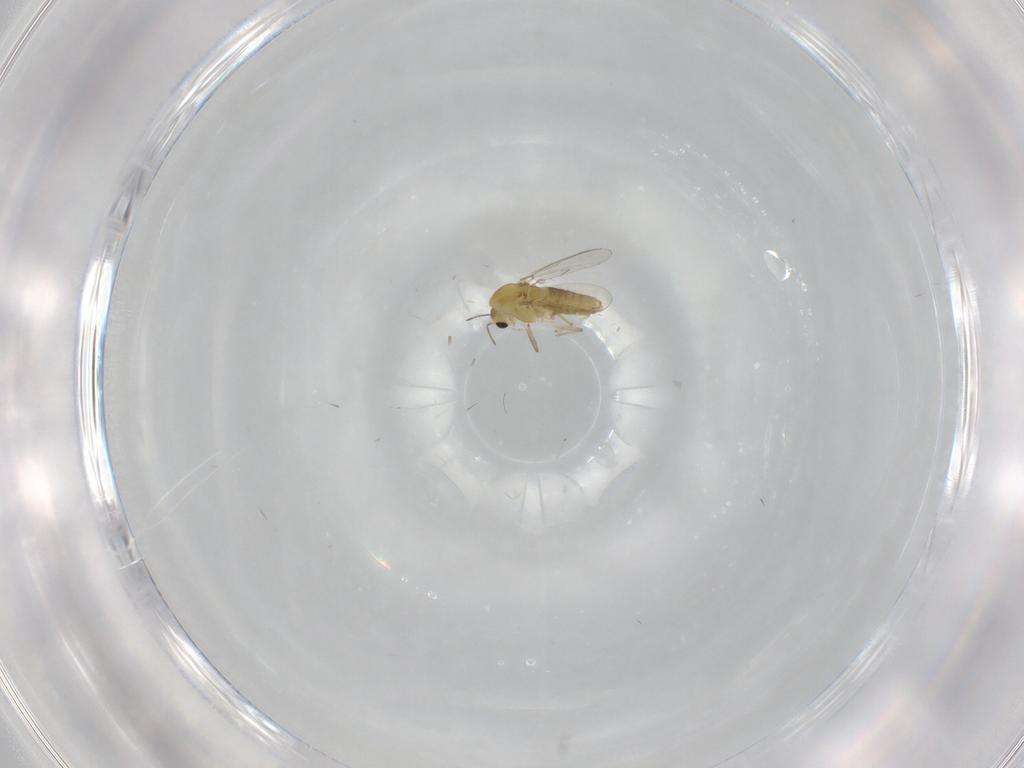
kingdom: Animalia
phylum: Arthropoda
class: Insecta
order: Diptera
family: Chironomidae
